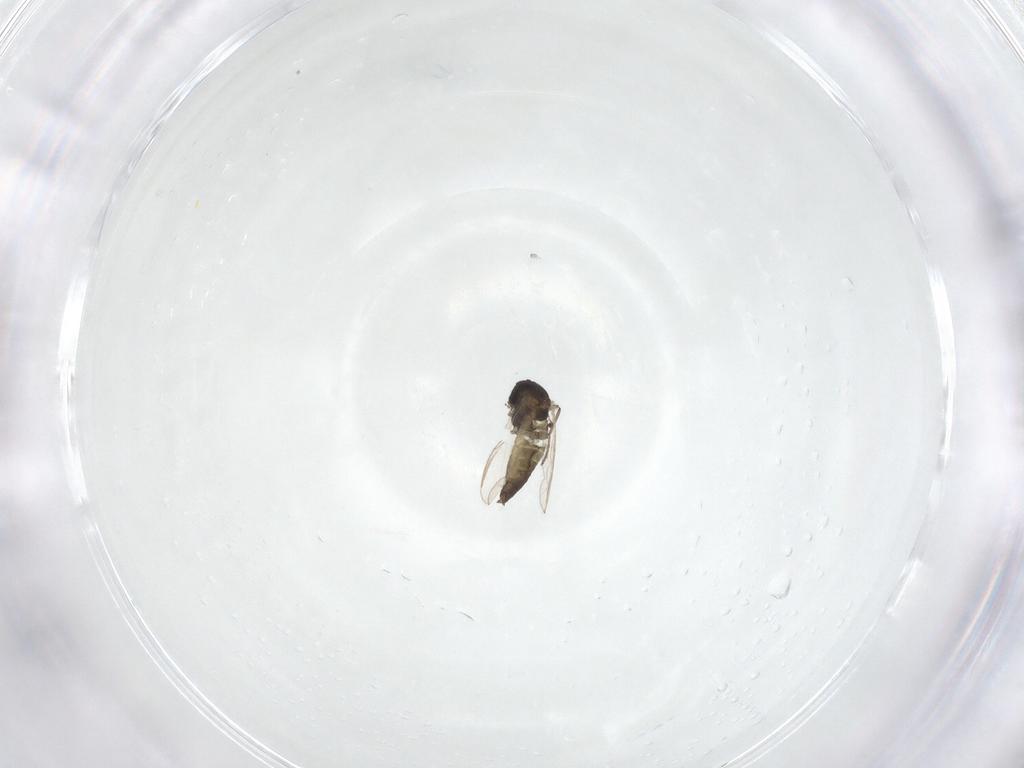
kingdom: Animalia
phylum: Arthropoda
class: Insecta
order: Diptera
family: Chironomidae
